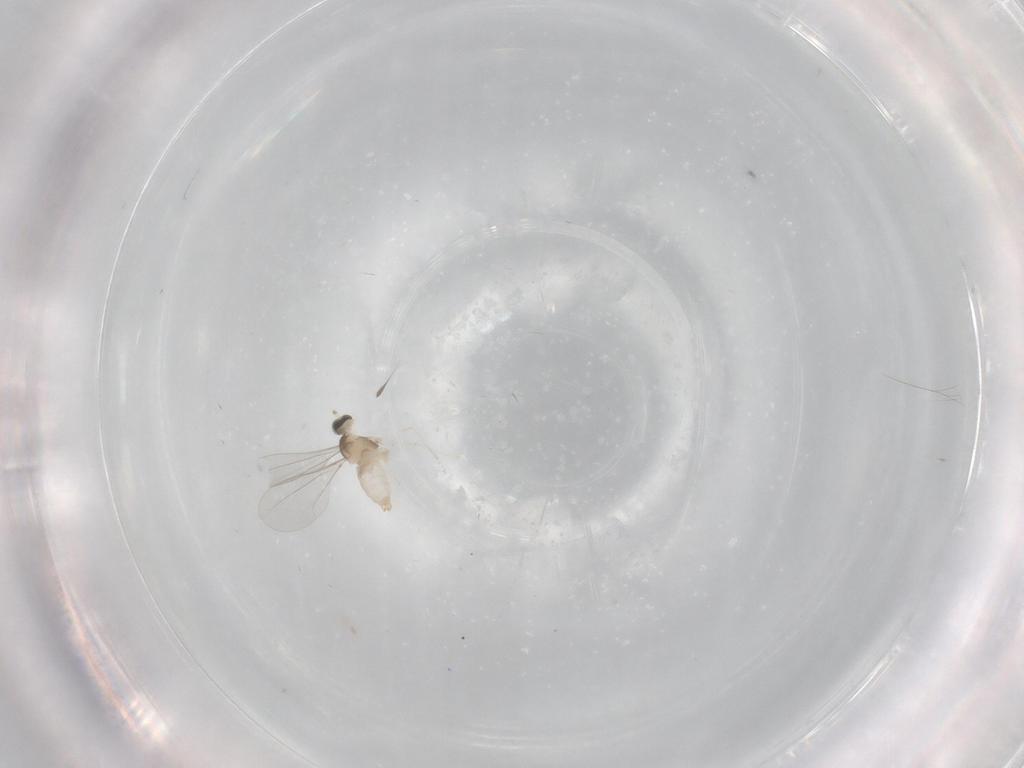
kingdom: Animalia
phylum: Arthropoda
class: Insecta
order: Diptera
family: Cecidomyiidae
